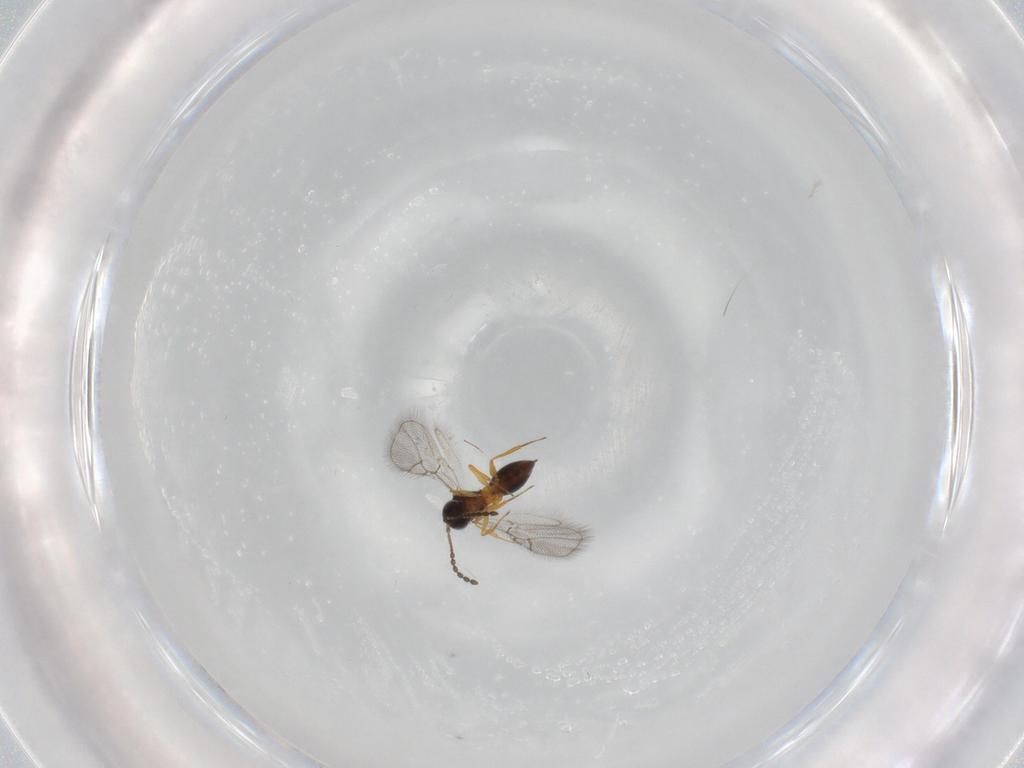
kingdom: Animalia
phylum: Arthropoda
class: Insecta
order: Hymenoptera
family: Figitidae
